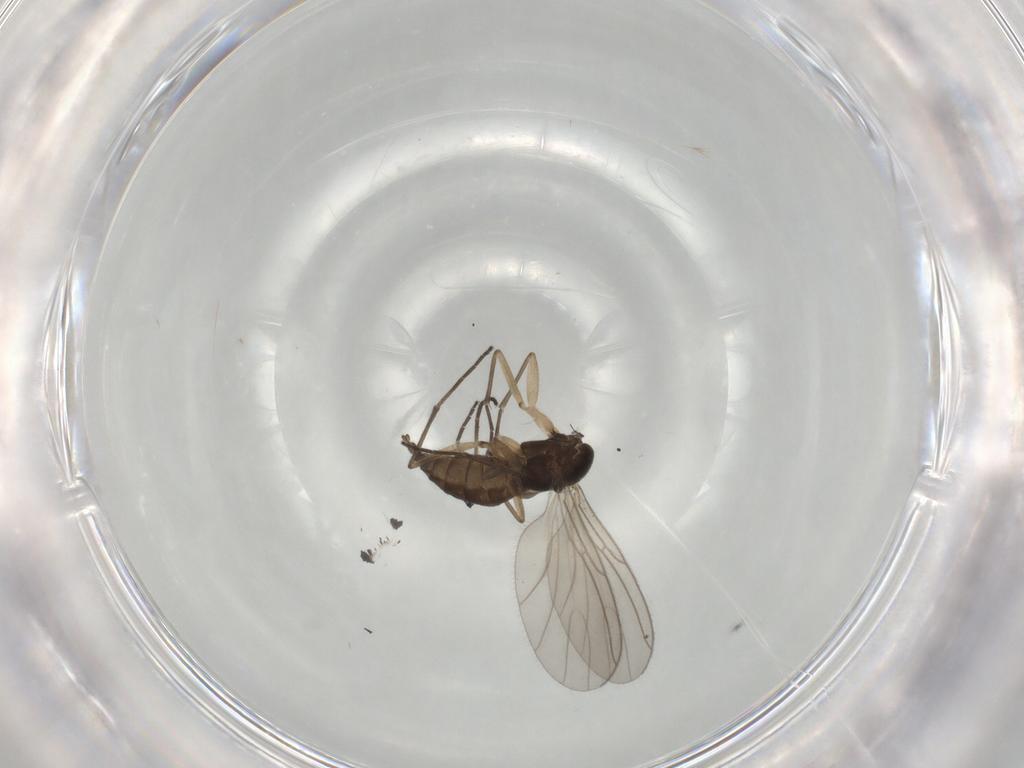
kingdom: Animalia
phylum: Arthropoda
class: Insecta
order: Diptera
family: Sciaridae
